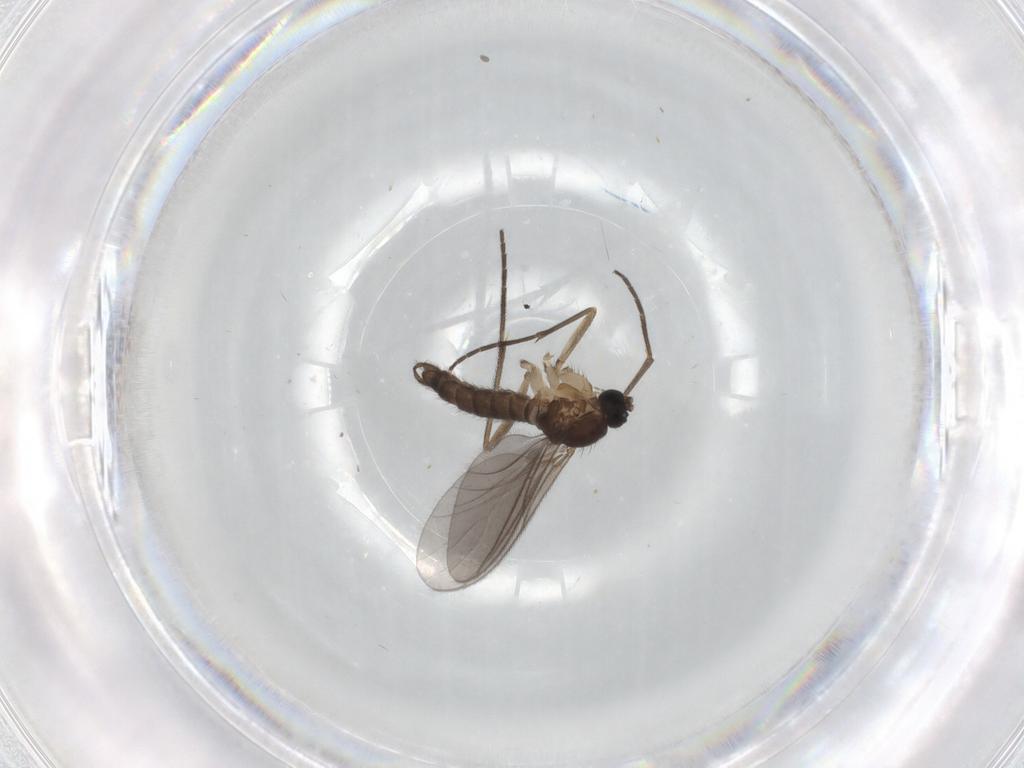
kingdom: Animalia
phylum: Arthropoda
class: Insecta
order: Diptera
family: Sciaridae
